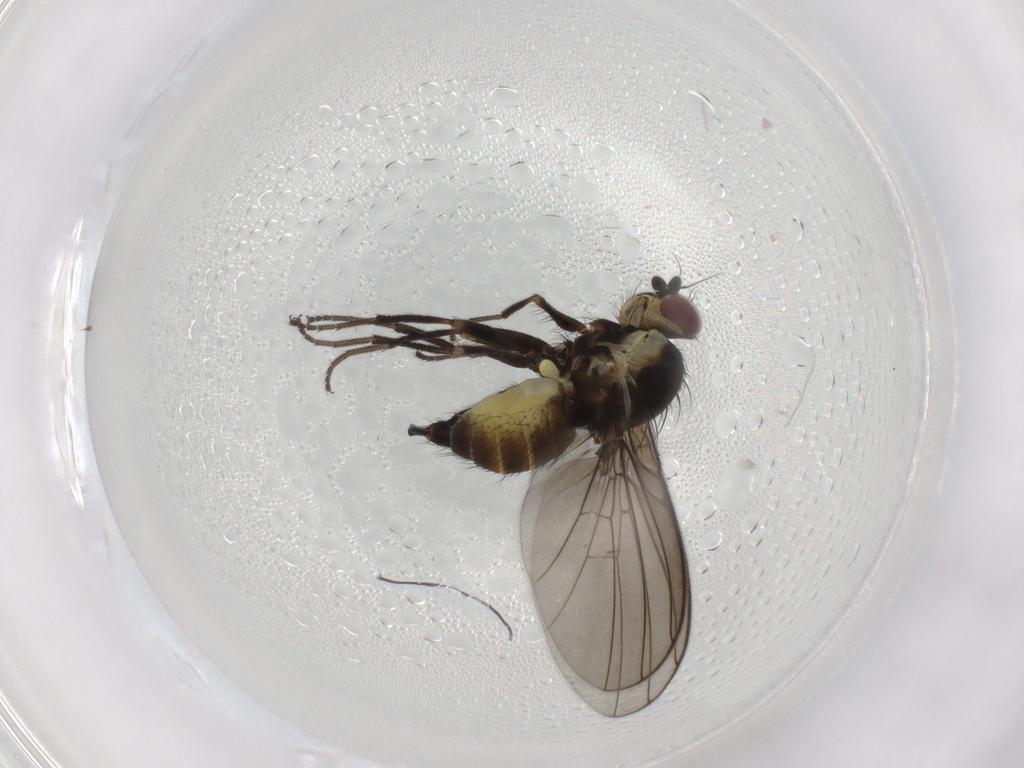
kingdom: Animalia
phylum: Arthropoda
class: Insecta
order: Diptera
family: Agromyzidae
